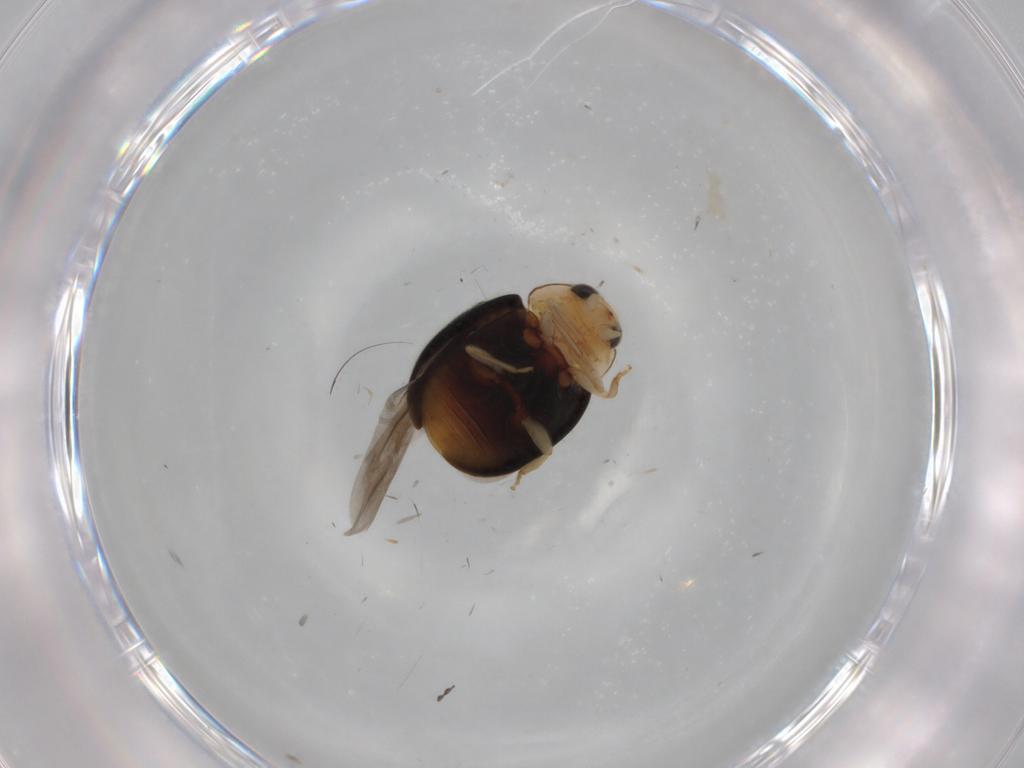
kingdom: Animalia
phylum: Arthropoda
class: Insecta
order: Coleoptera
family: Coccinellidae
